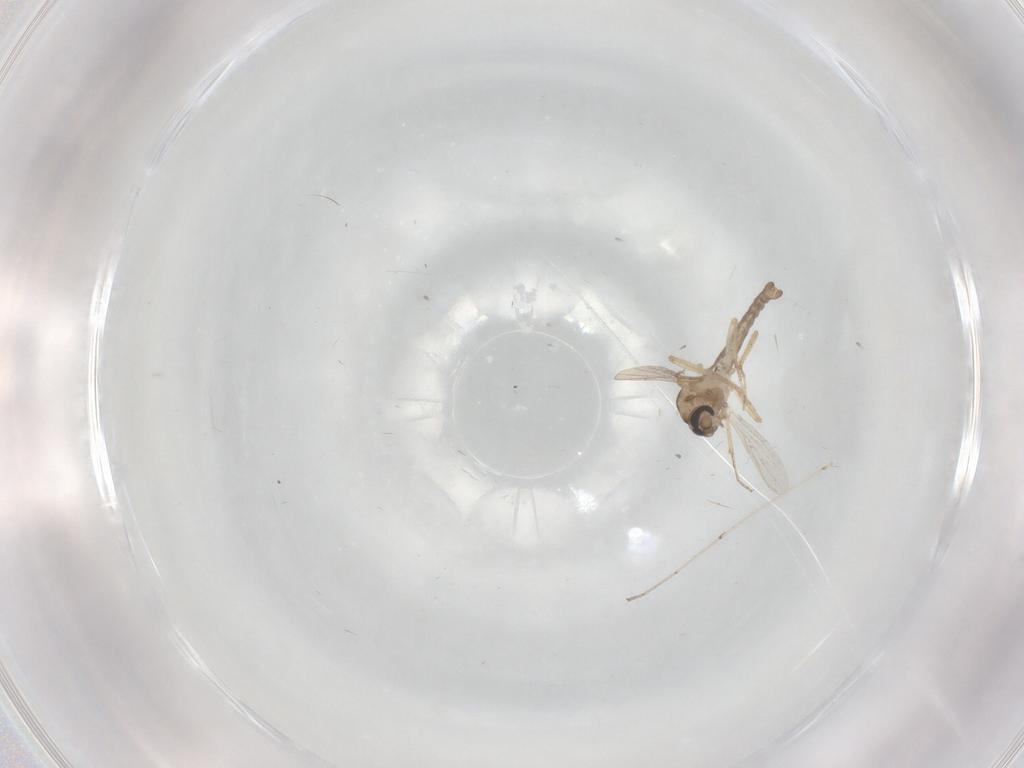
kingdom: Animalia
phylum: Arthropoda
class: Insecta
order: Diptera
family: Ceratopogonidae
